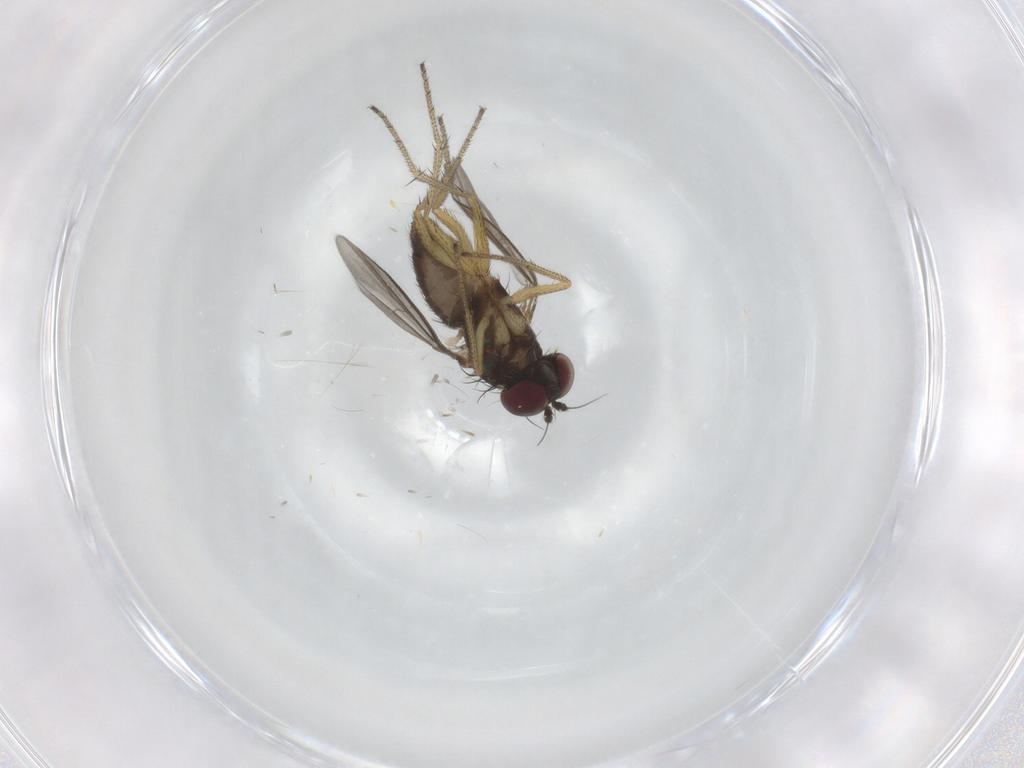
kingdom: Animalia
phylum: Arthropoda
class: Insecta
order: Diptera
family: Dolichopodidae
